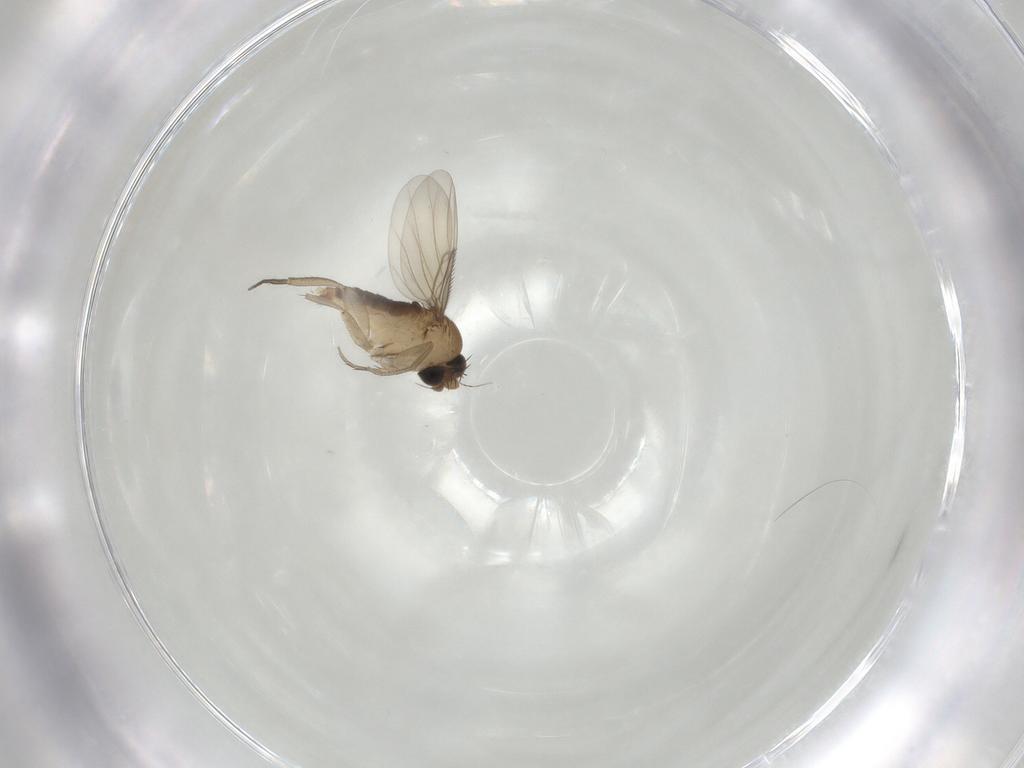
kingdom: Animalia
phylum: Arthropoda
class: Insecta
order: Diptera
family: Phoridae
